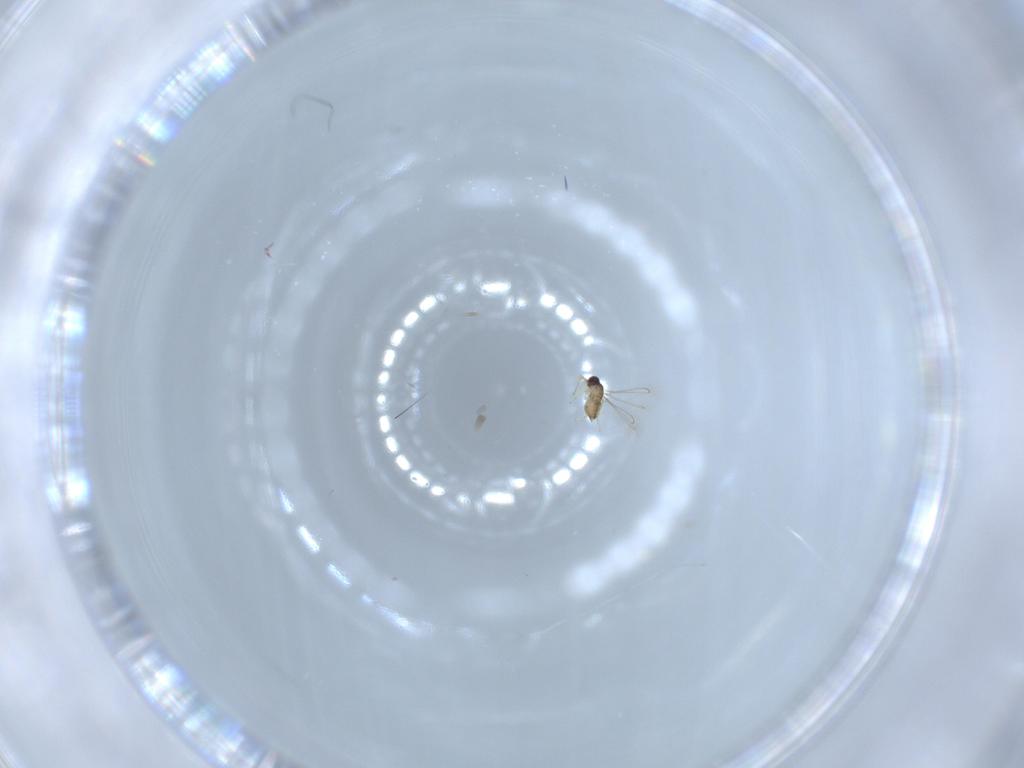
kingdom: Animalia
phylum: Arthropoda
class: Insecta
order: Hymenoptera
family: Mymaridae
